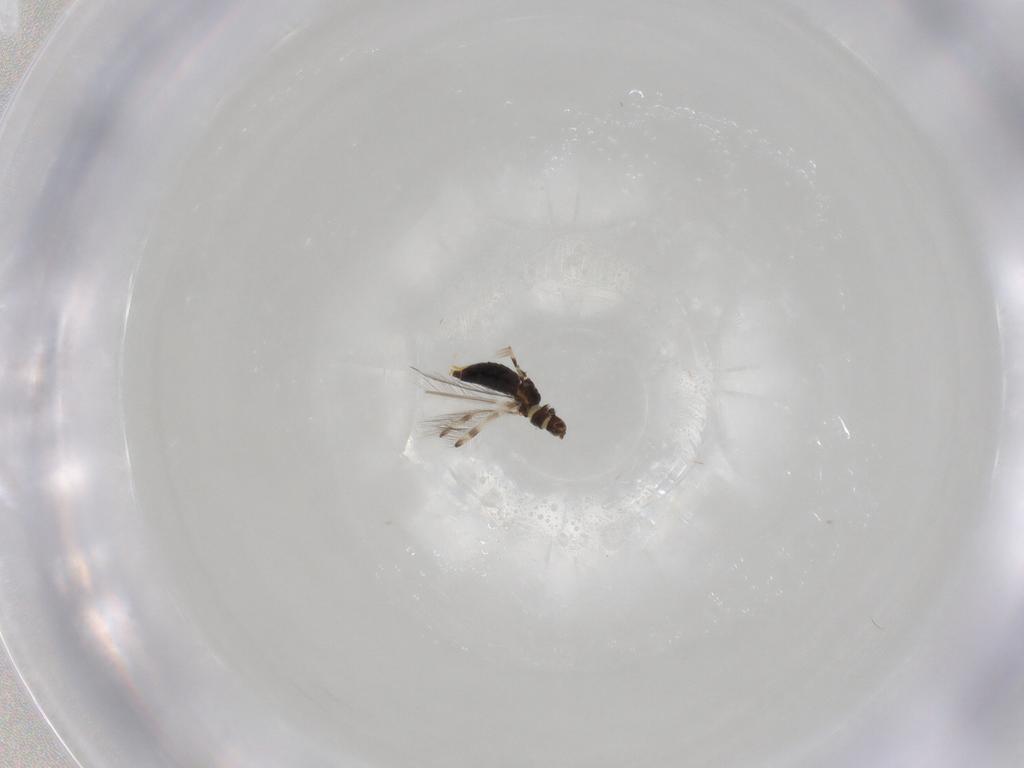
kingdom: Animalia
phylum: Arthropoda
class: Insecta
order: Thysanoptera
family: Thripidae
